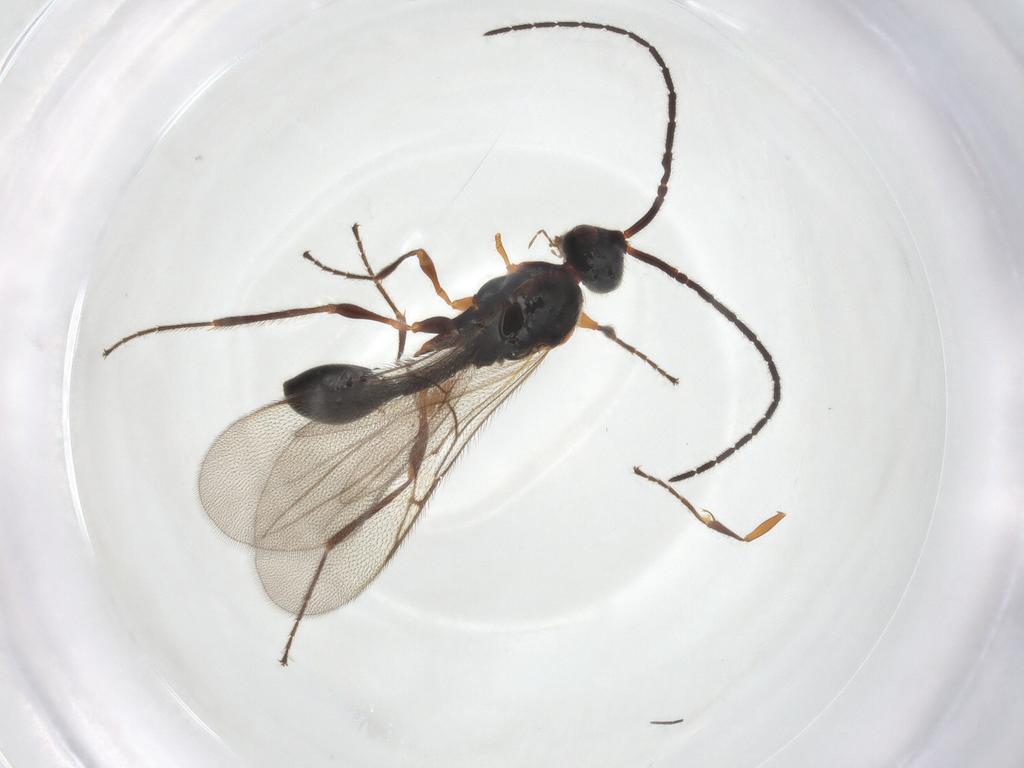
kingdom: Animalia
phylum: Arthropoda
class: Insecta
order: Hymenoptera
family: Diapriidae
